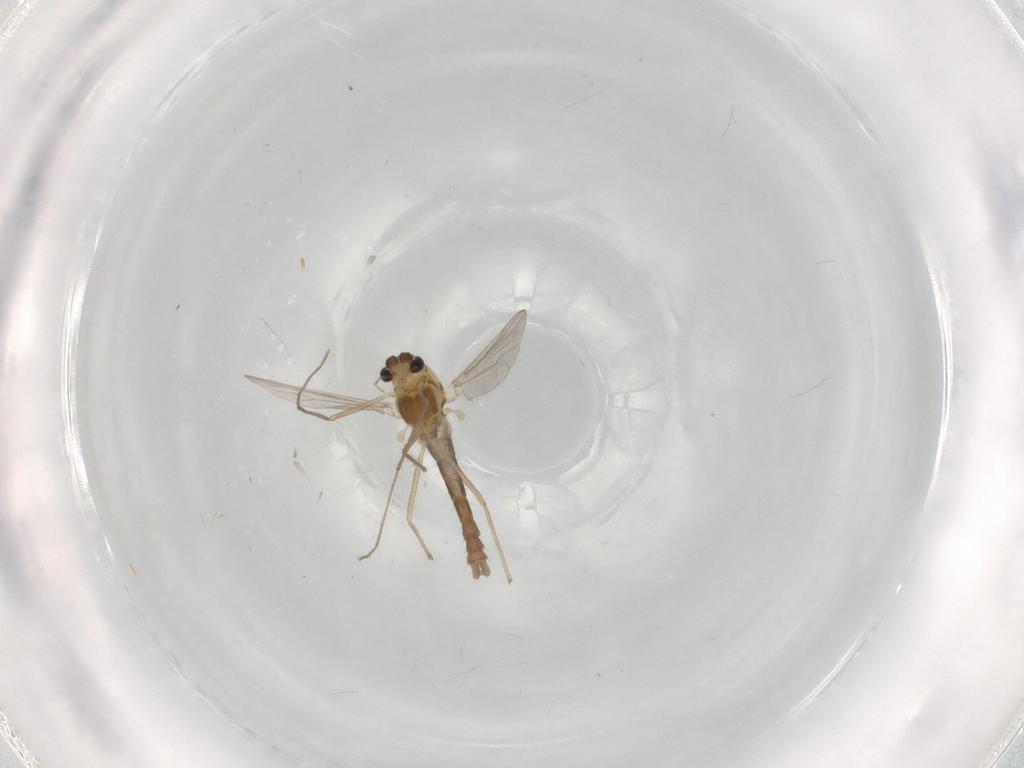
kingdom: Animalia
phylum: Arthropoda
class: Insecta
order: Diptera
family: Chironomidae
